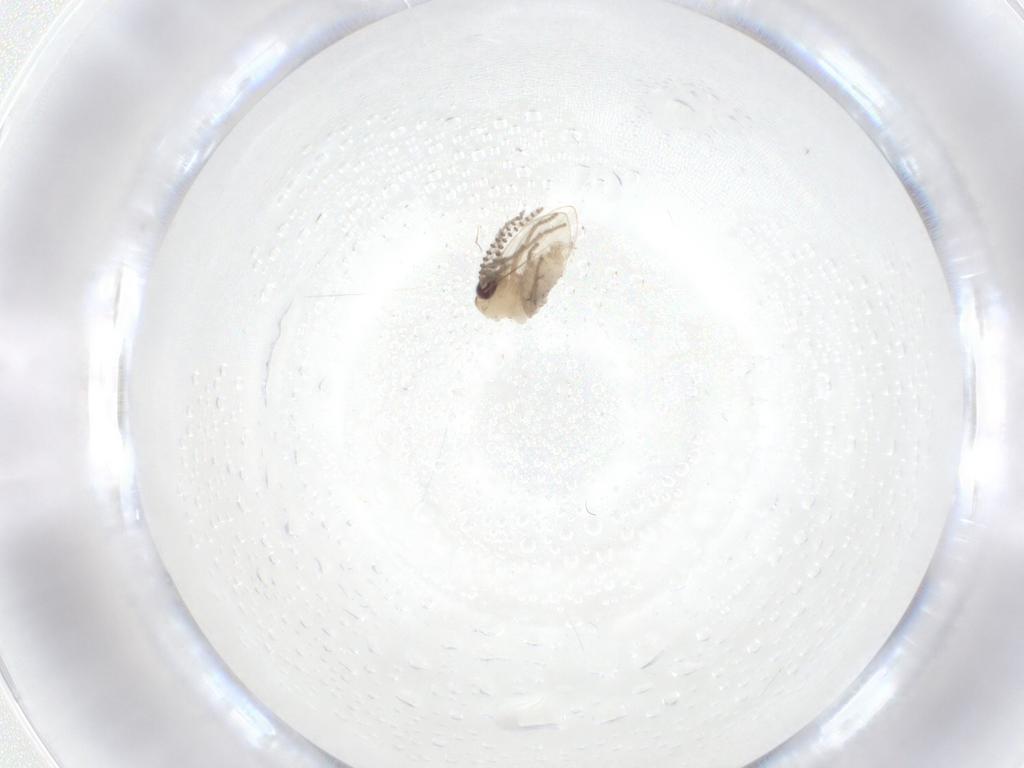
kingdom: Animalia
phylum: Arthropoda
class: Insecta
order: Diptera
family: Psychodidae
